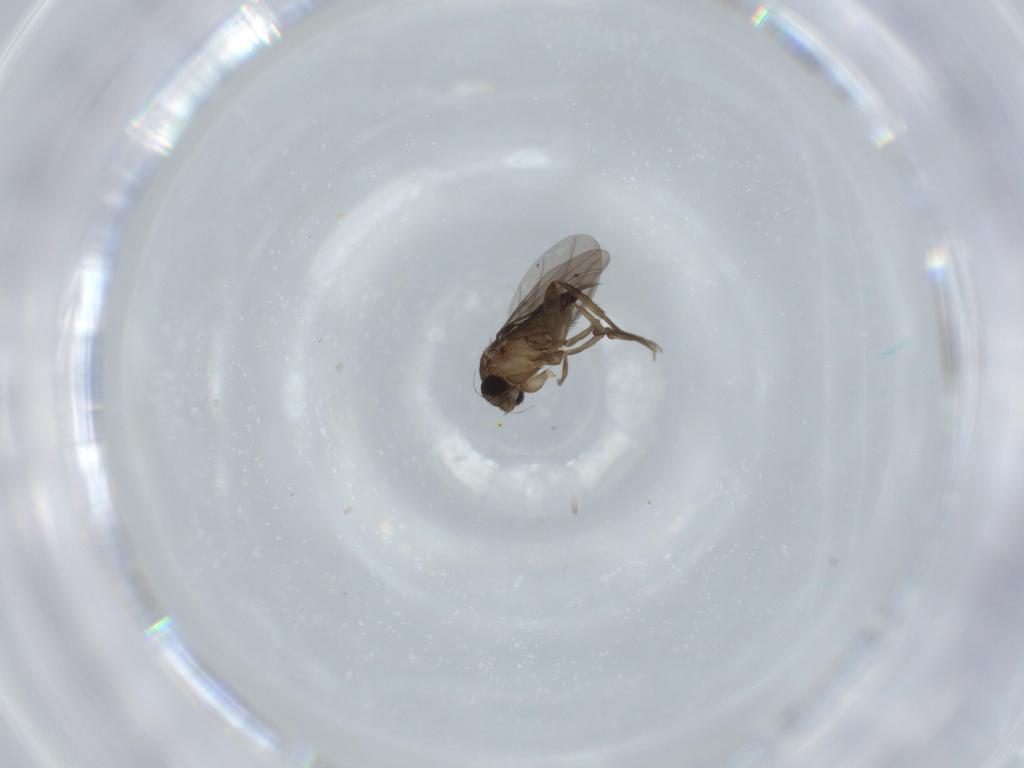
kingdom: Animalia
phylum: Arthropoda
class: Insecta
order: Diptera
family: Phoridae
